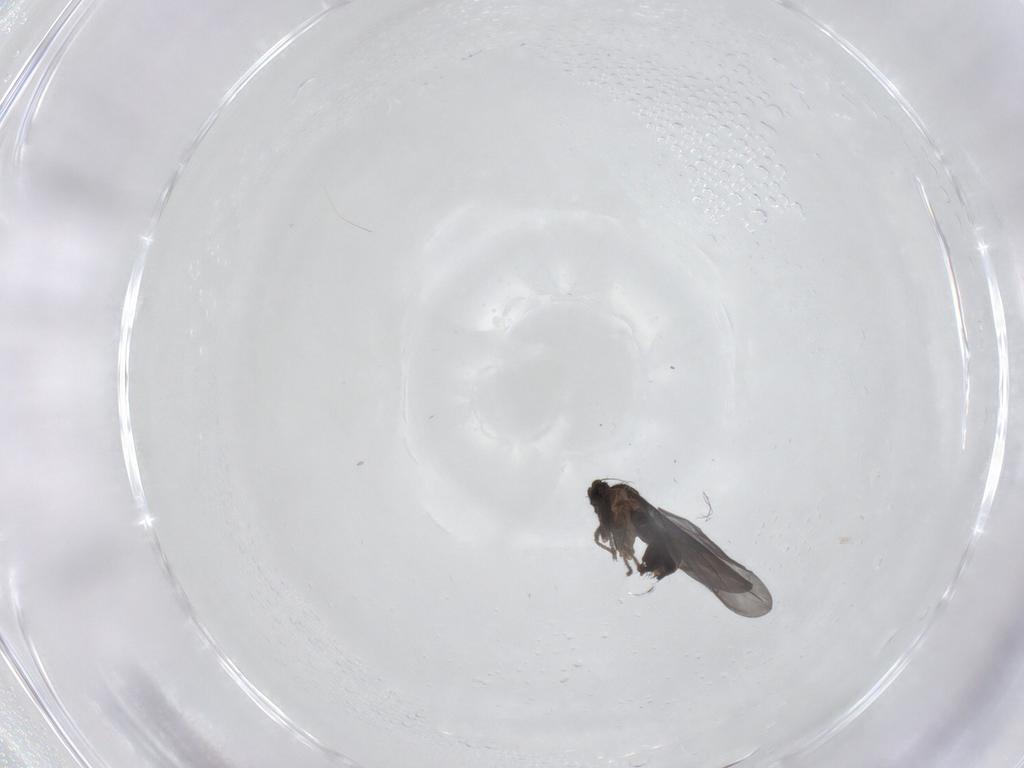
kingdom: Animalia
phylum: Arthropoda
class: Insecta
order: Diptera
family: Phoridae
